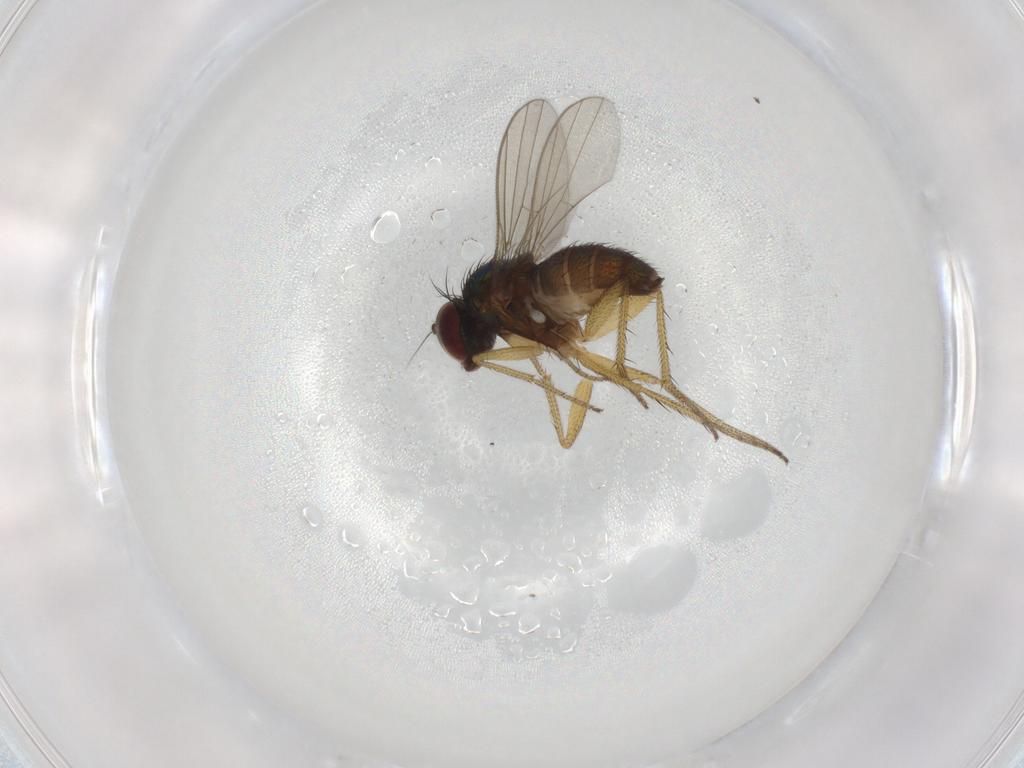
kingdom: Animalia
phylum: Arthropoda
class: Insecta
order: Diptera
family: Dolichopodidae
